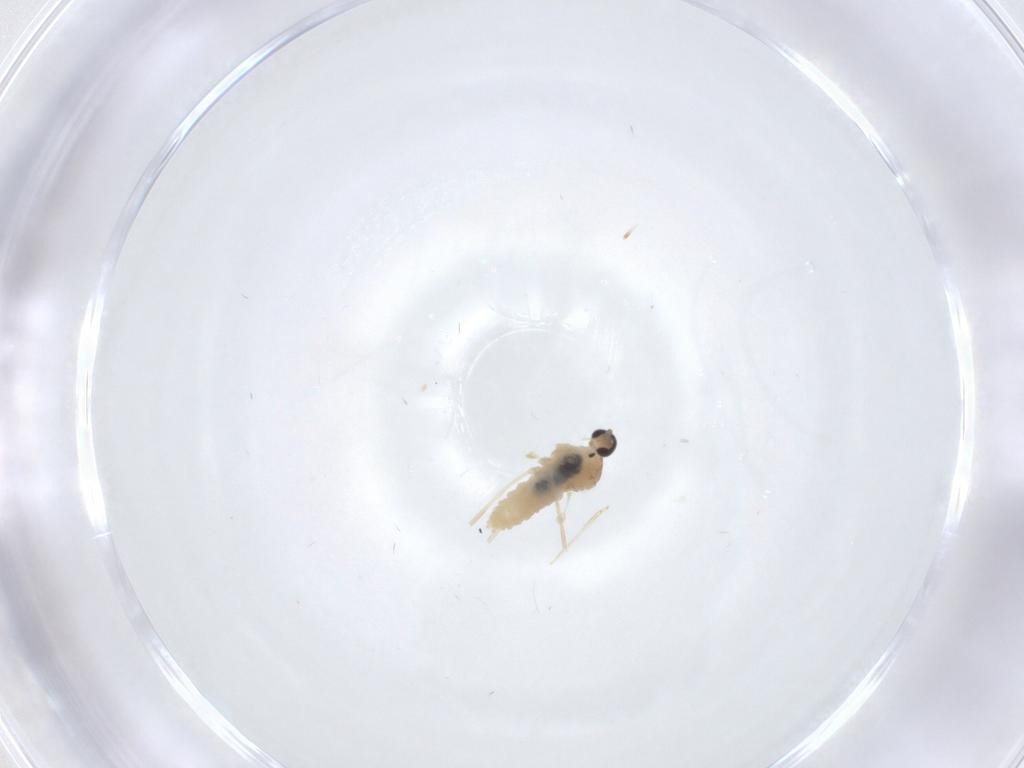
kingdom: Animalia
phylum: Arthropoda
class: Insecta
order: Diptera
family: Cecidomyiidae
